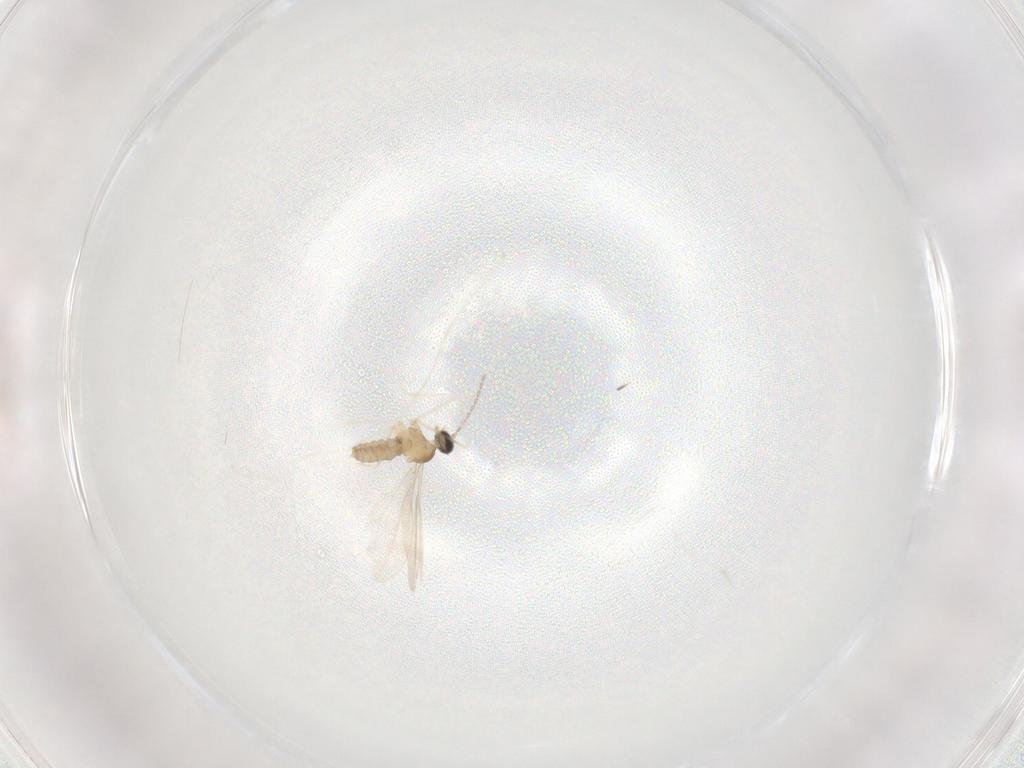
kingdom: Animalia
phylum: Arthropoda
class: Insecta
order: Diptera
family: Cecidomyiidae
